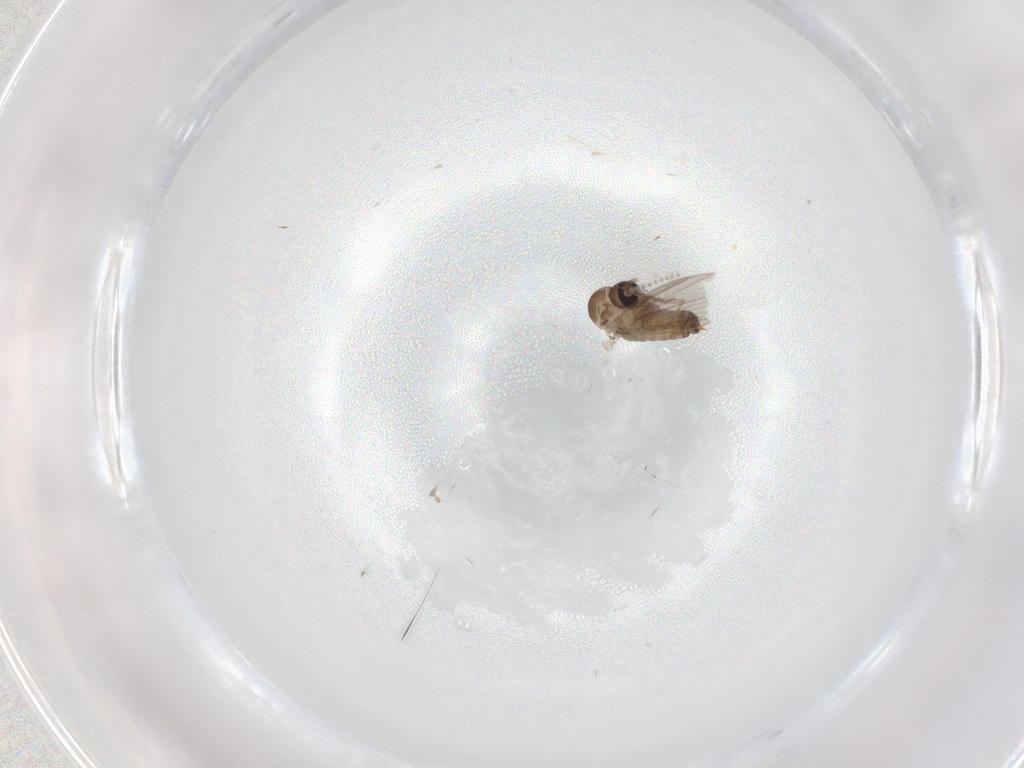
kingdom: Animalia
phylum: Arthropoda
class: Insecta
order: Diptera
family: Psychodidae
